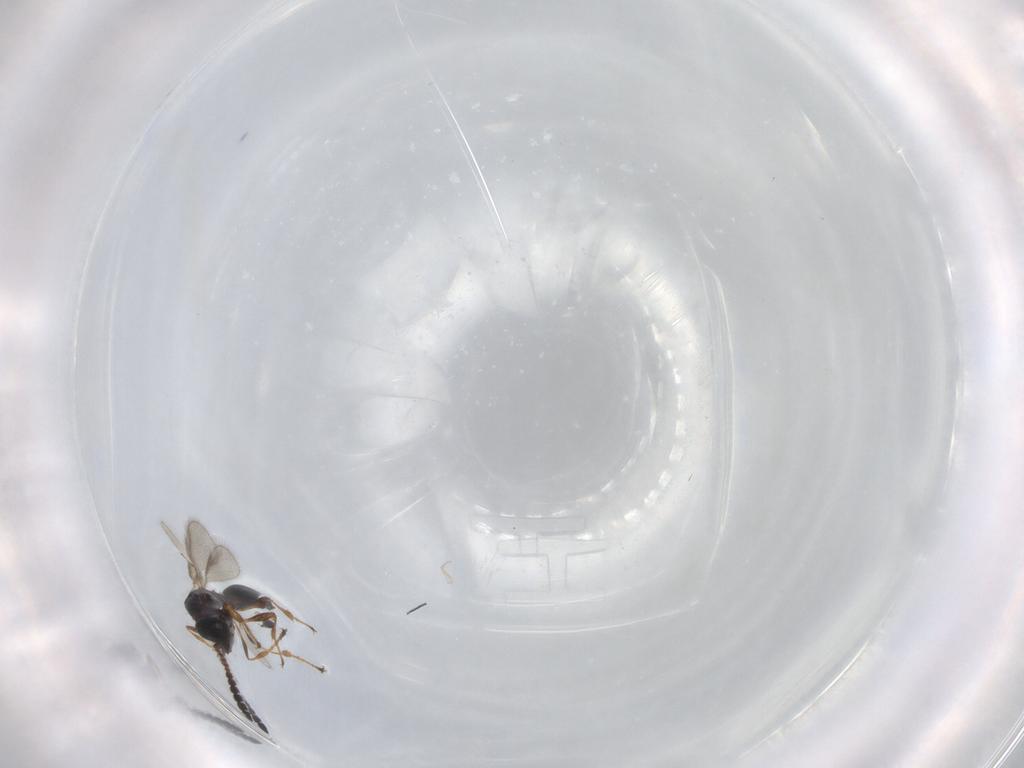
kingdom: Animalia
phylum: Arthropoda
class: Insecta
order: Hymenoptera
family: Diapriidae
